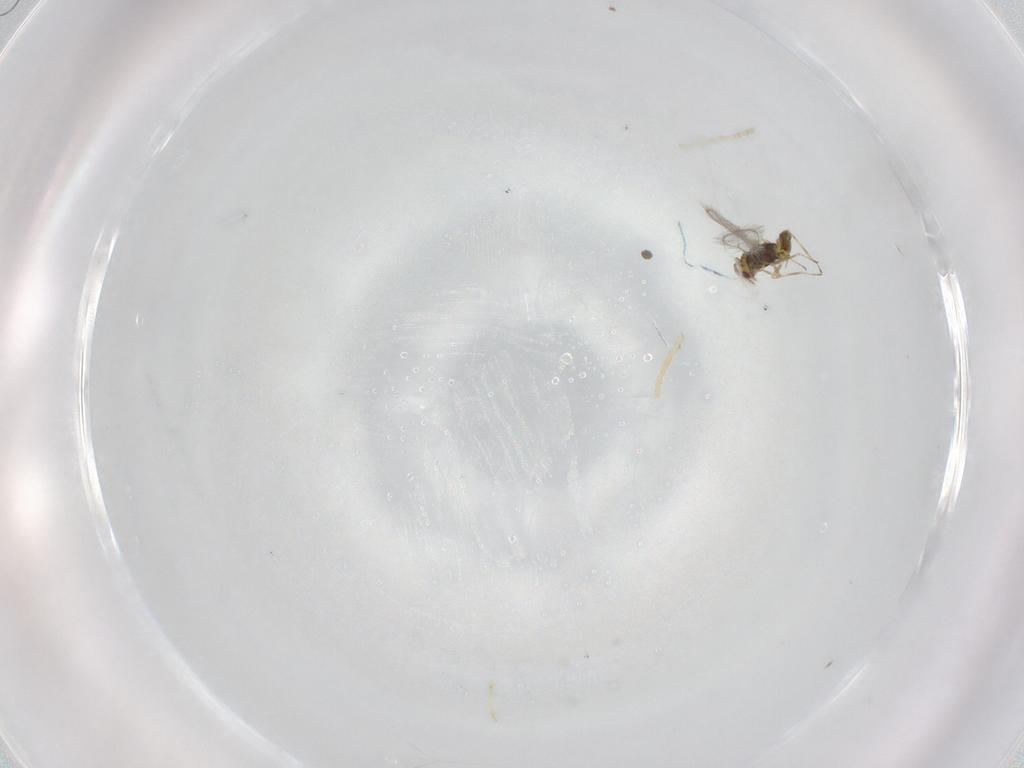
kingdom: Animalia
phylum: Arthropoda
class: Insecta
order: Hymenoptera
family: Eulophidae
